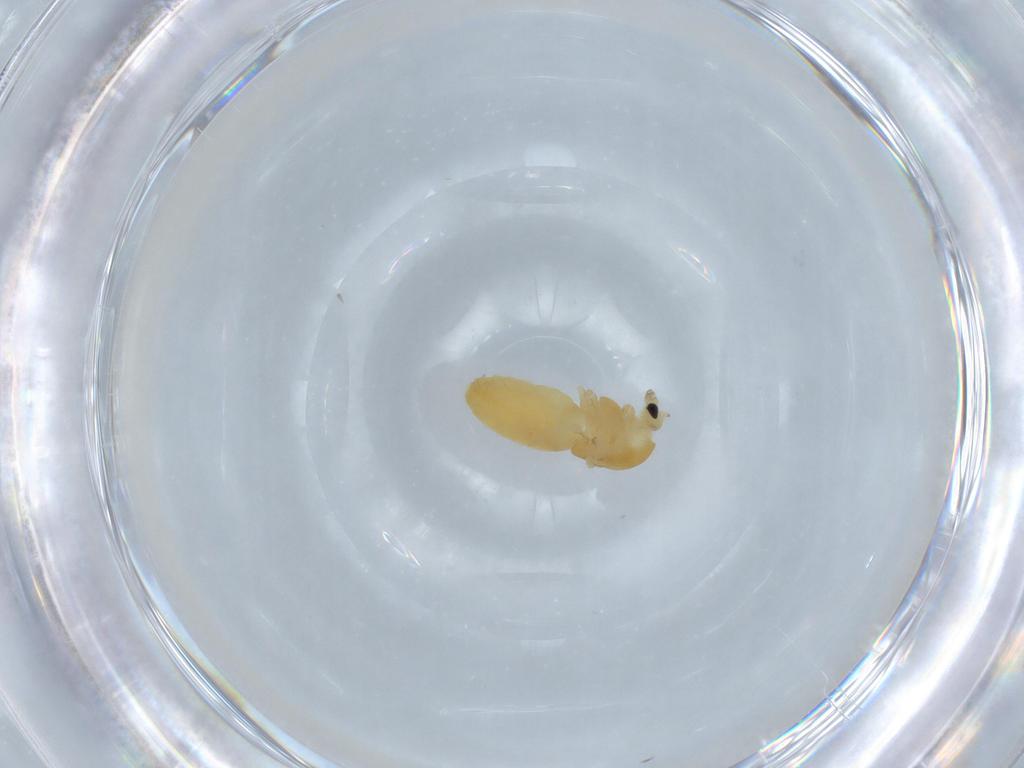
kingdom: Animalia
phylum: Arthropoda
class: Insecta
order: Diptera
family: Chironomidae
